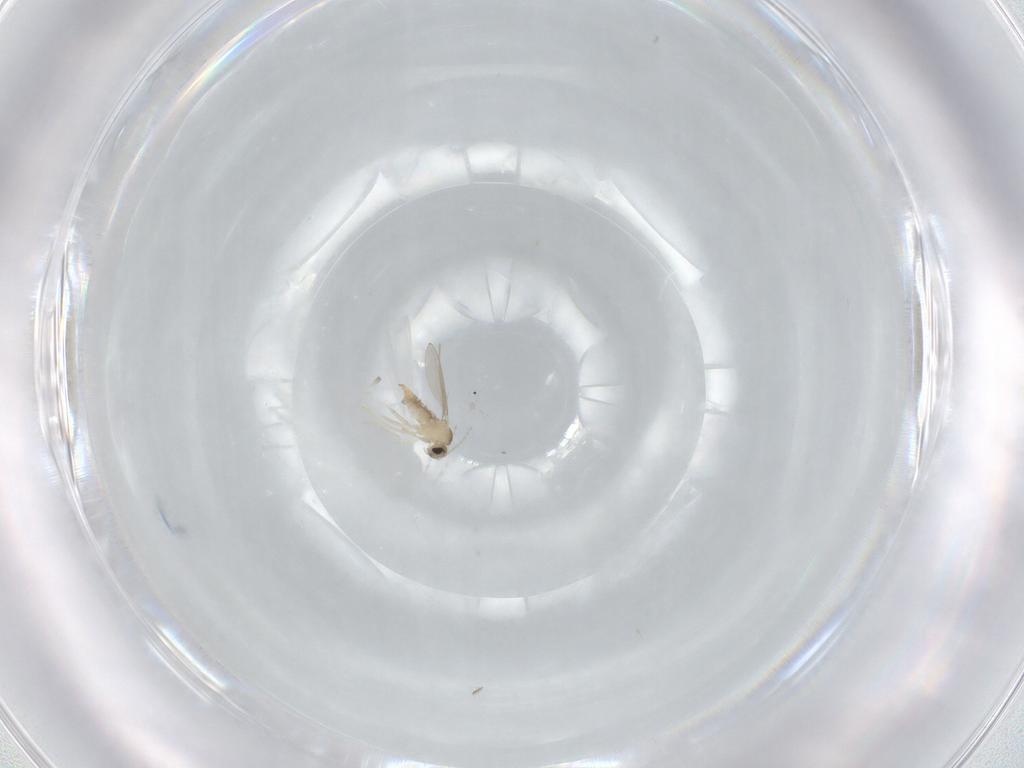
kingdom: Animalia
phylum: Arthropoda
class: Insecta
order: Diptera
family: Cecidomyiidae
